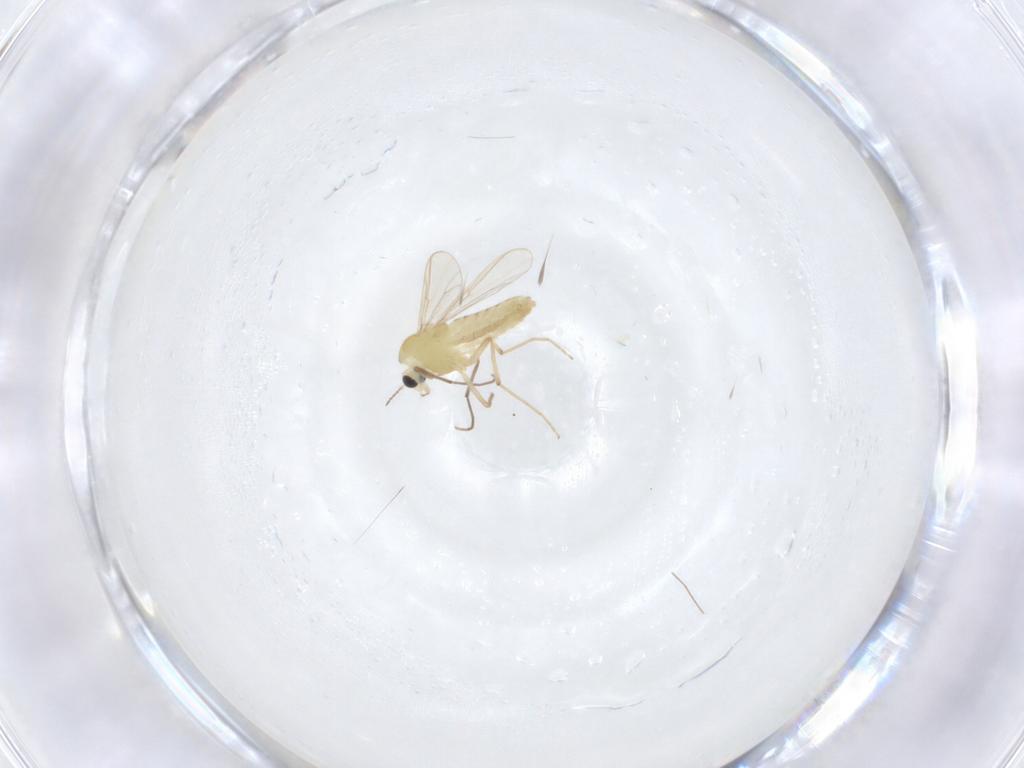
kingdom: Animalia
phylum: Arthropoda
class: Insecta
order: Diptera
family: Chironomidae
